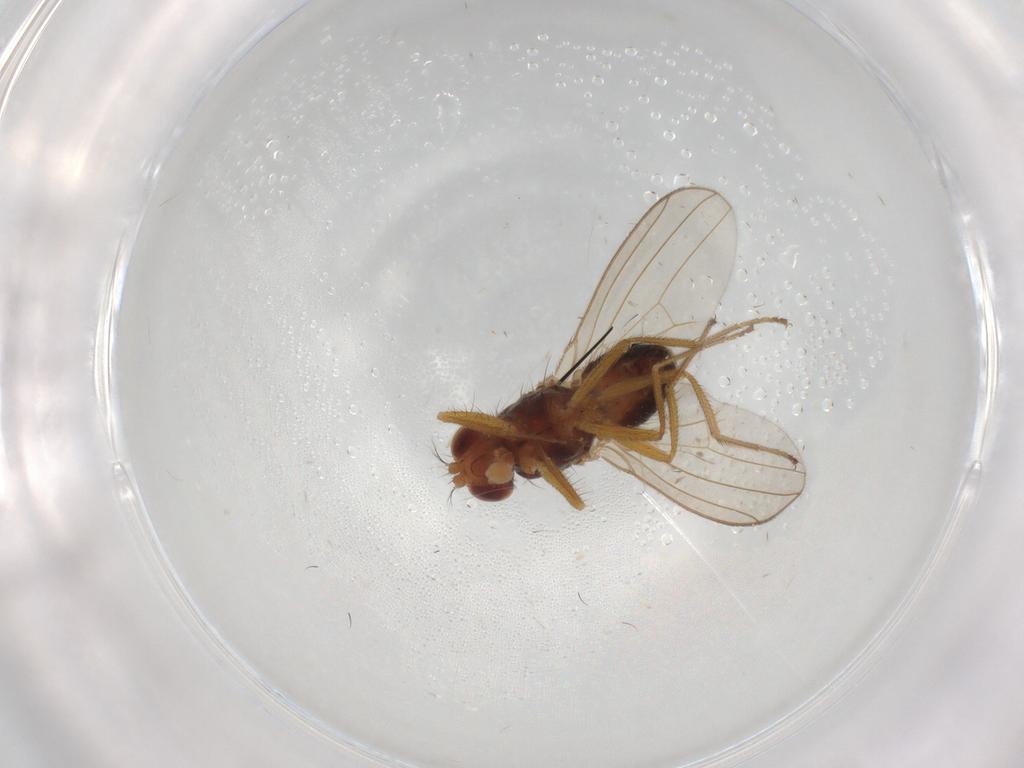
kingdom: Animalia
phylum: Arthropoda
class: Insecta
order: Diptera
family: Drosophilidae
